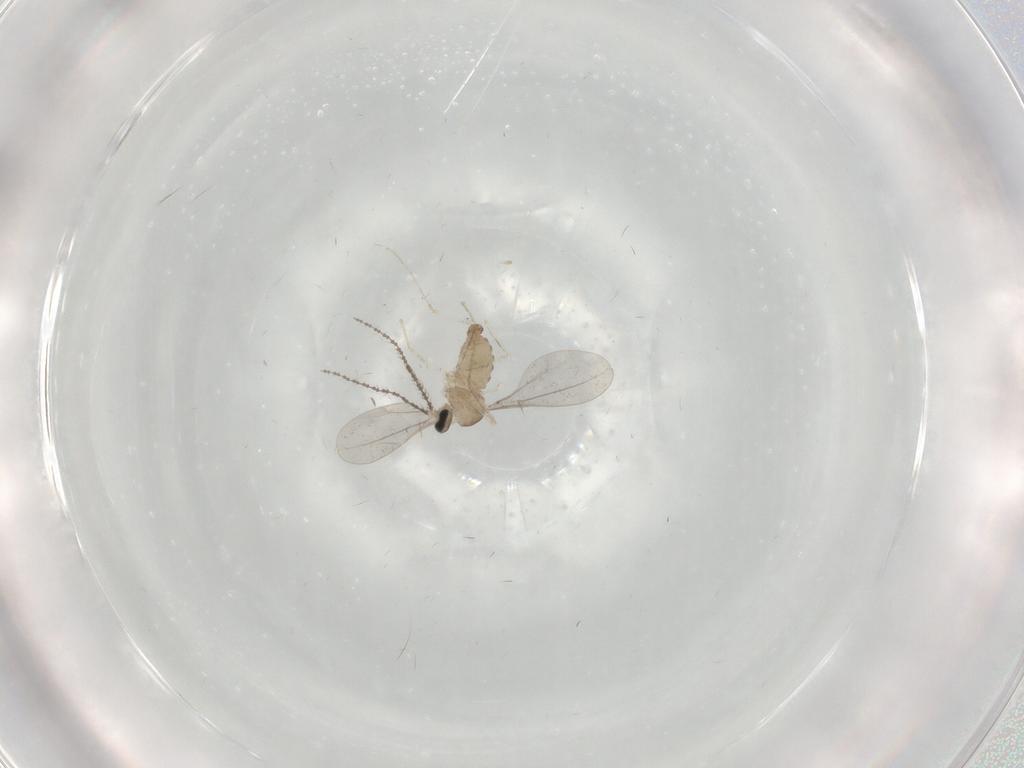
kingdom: Animalia
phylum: Arthropoda
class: Insecta
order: Diptera
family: Cecidomyiidae
